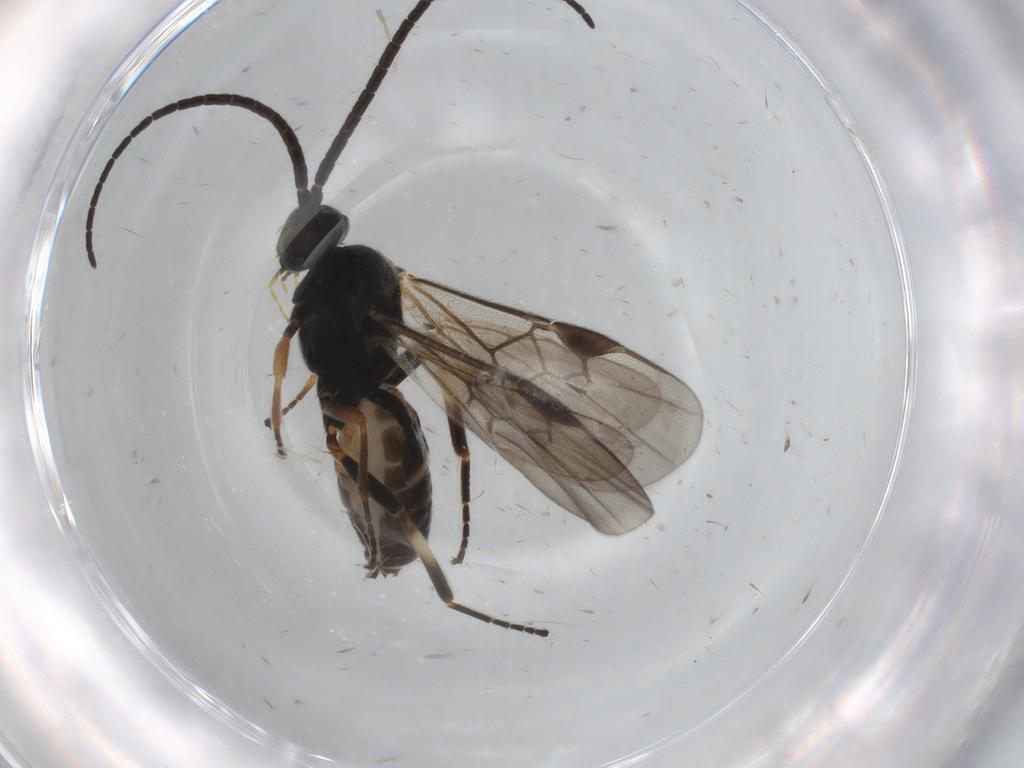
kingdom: Animalia
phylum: Arthropoda
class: Insecta
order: Hymenoptera
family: Braconidae
